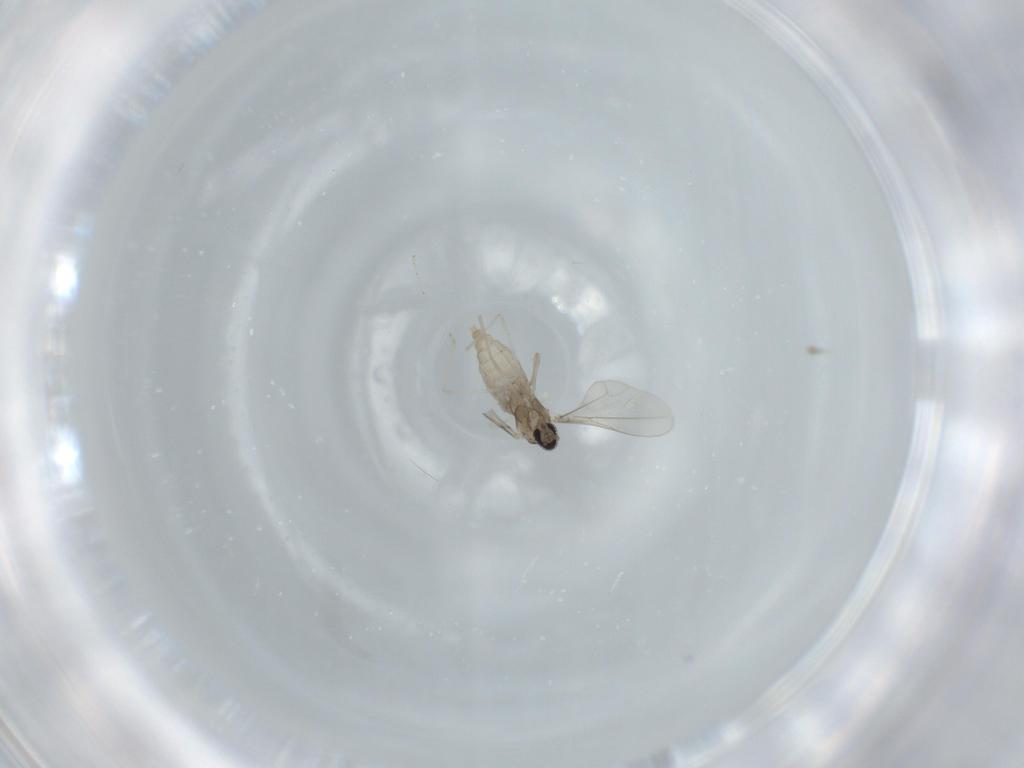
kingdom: Animalia
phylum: Arthropoda
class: Insecta
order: Diptera
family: Cecidomyiidae
